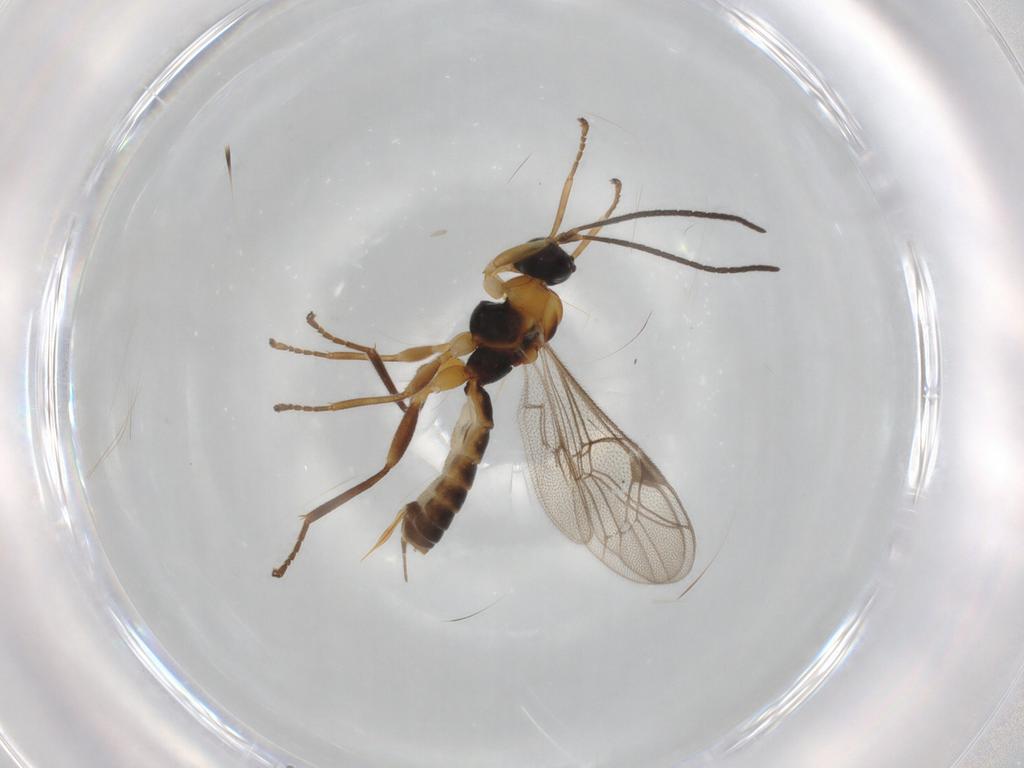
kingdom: Animalia
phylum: Arthropoda
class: Insecta
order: Hymenoptera
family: Ichneumonidae
